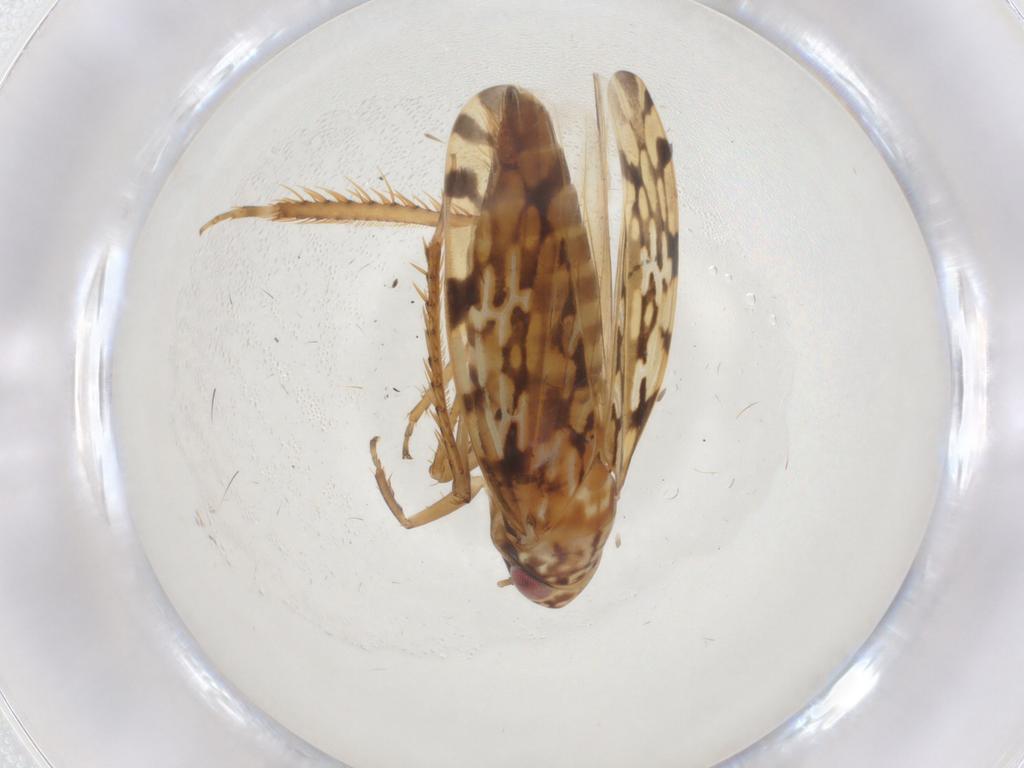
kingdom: Animalia
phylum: Arthropoda
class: Insecta
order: Hemiptera
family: Cicadellidae
